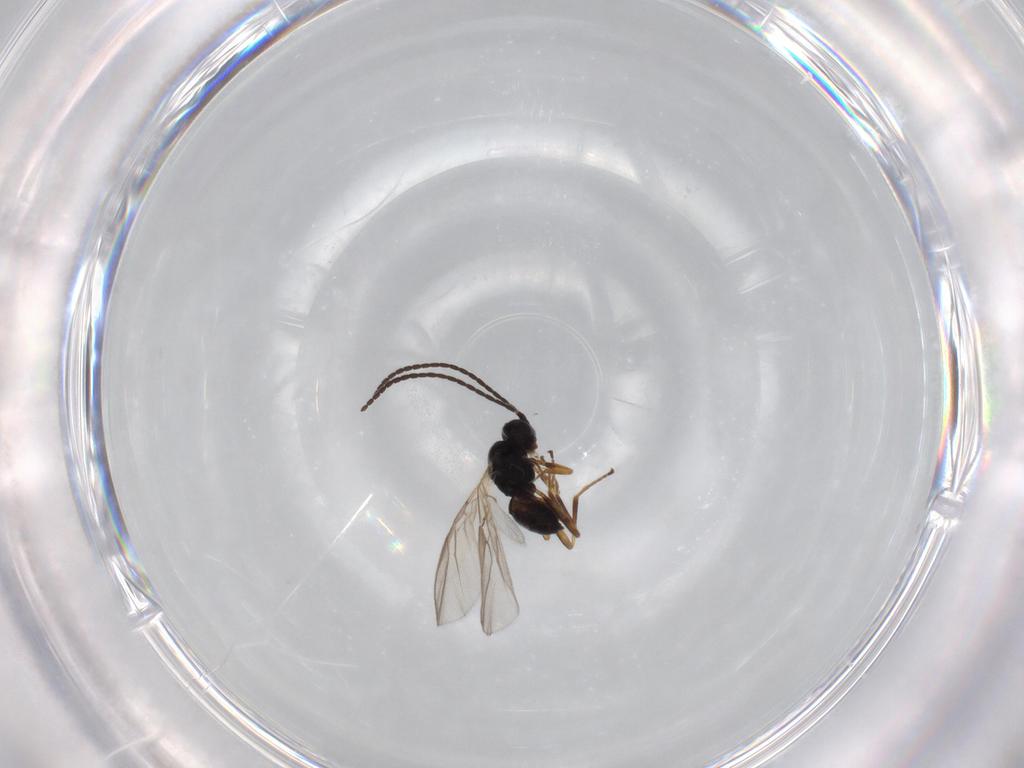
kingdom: Animalia
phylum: Arthropoda
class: Insecta
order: Hymenoptera
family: Braconidae
